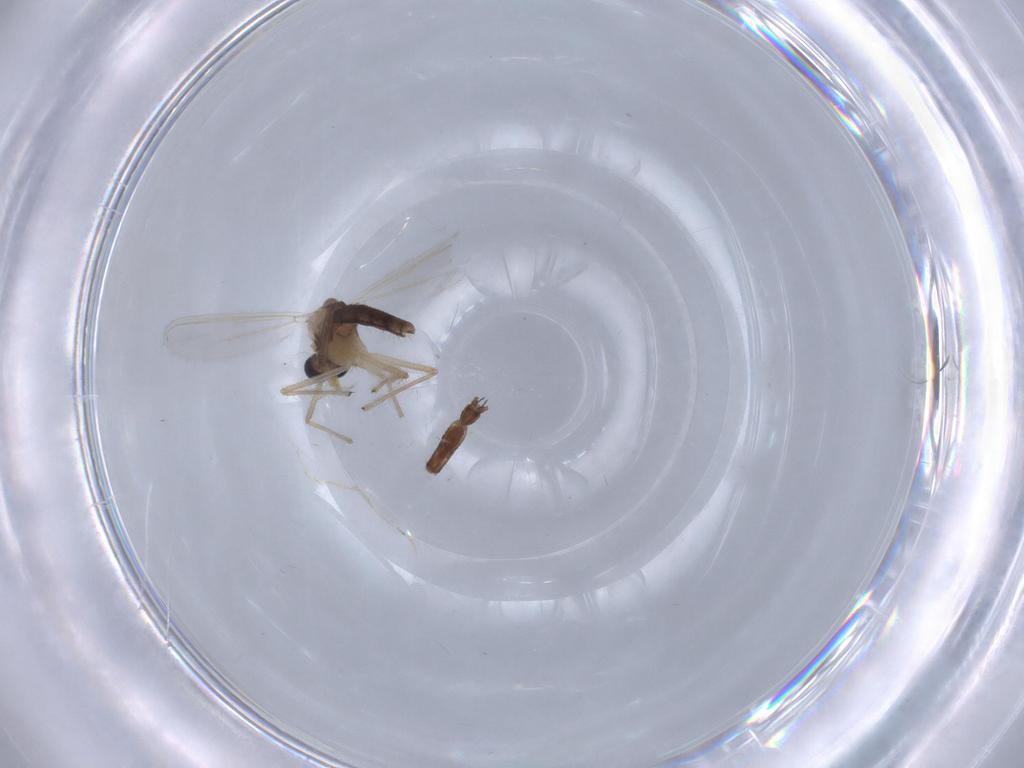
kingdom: Animalia
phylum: Arthropoda
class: Insecta
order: Diptera
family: Chironomidae
